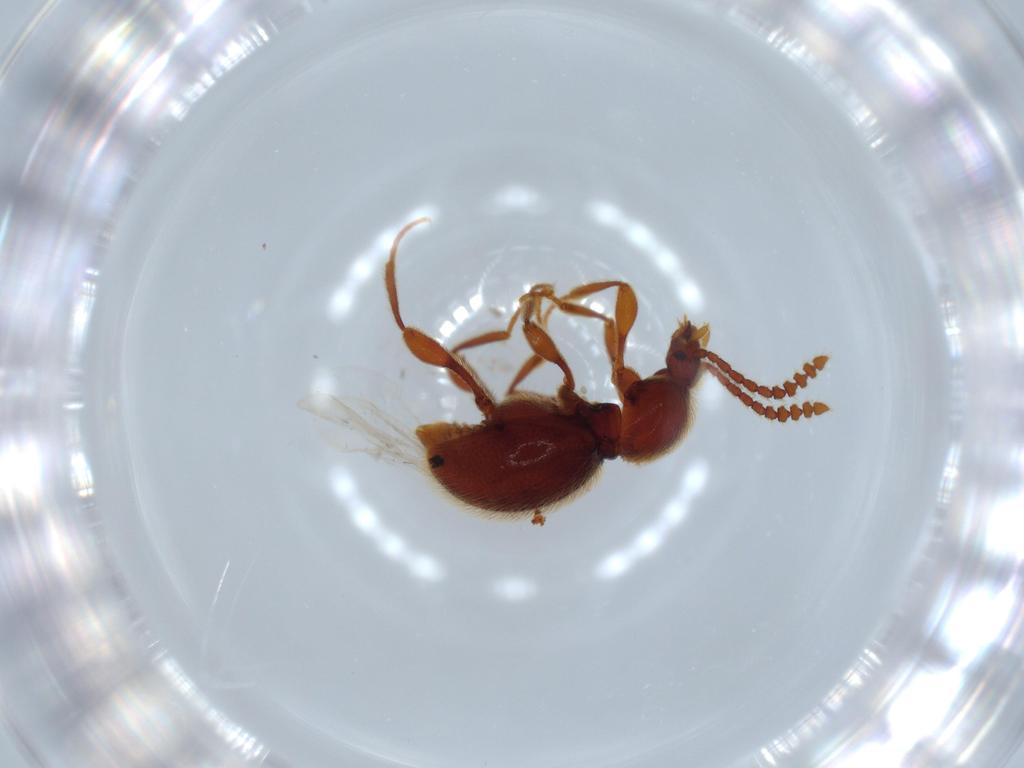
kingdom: Animalia
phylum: Arthropoda
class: Insecta
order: Coleoptera
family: Staphylinidae
